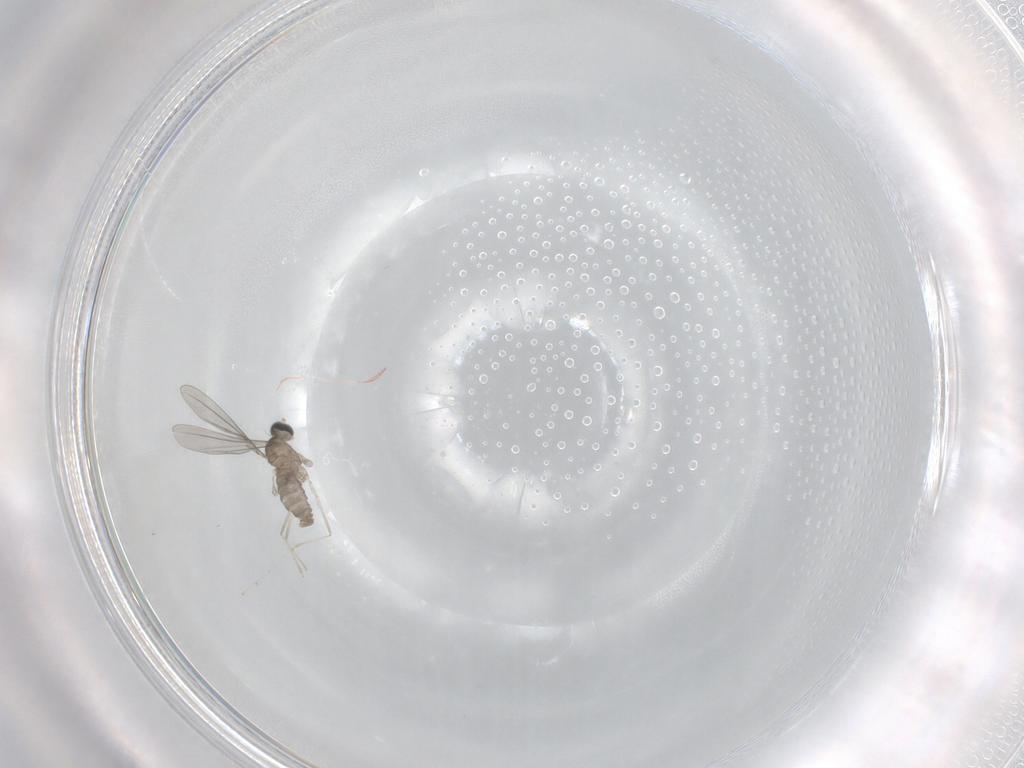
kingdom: Animalia
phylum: Arthropoda
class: Insecta
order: Diptera
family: Cecidomyiidae
